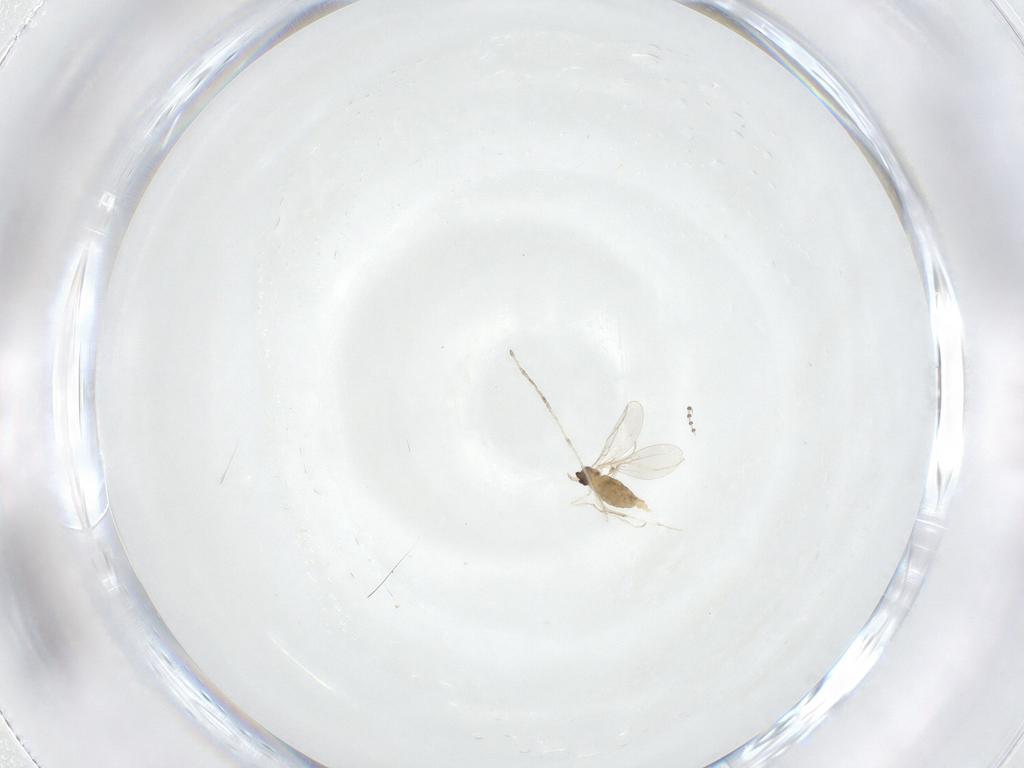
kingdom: Animalia
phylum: Arthropoda
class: Insecta
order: Diptera
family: Cecidomyiidae
